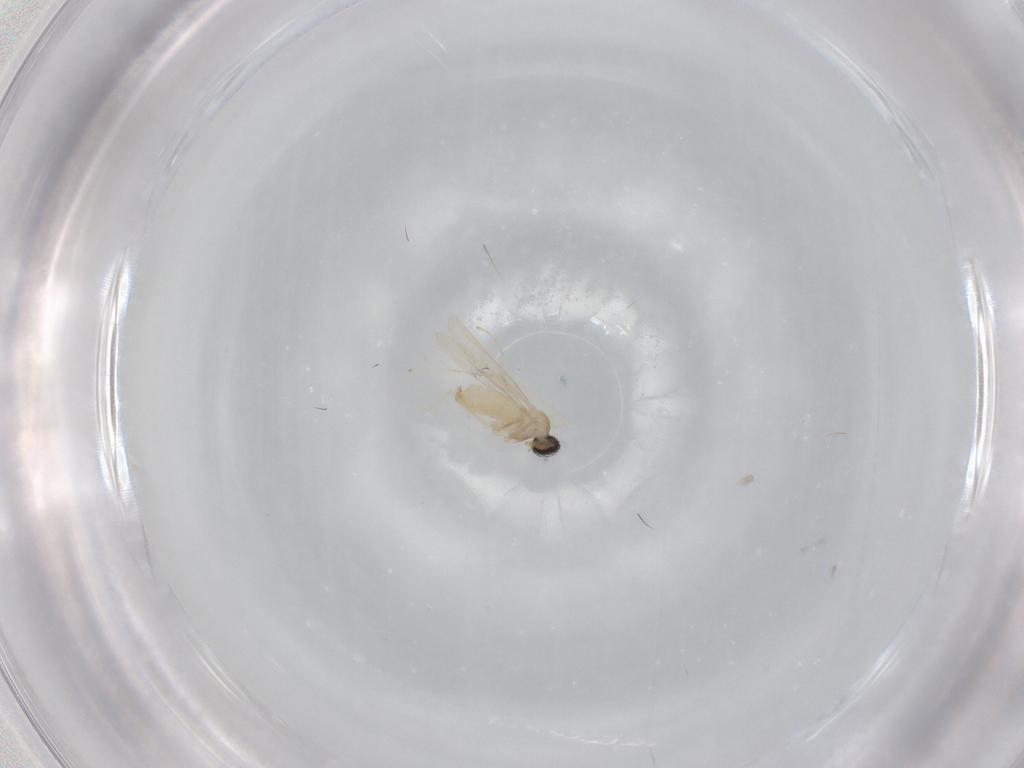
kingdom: Animalia
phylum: Arthropoda
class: Insecta
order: Diptera
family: Cecidomyiidae
